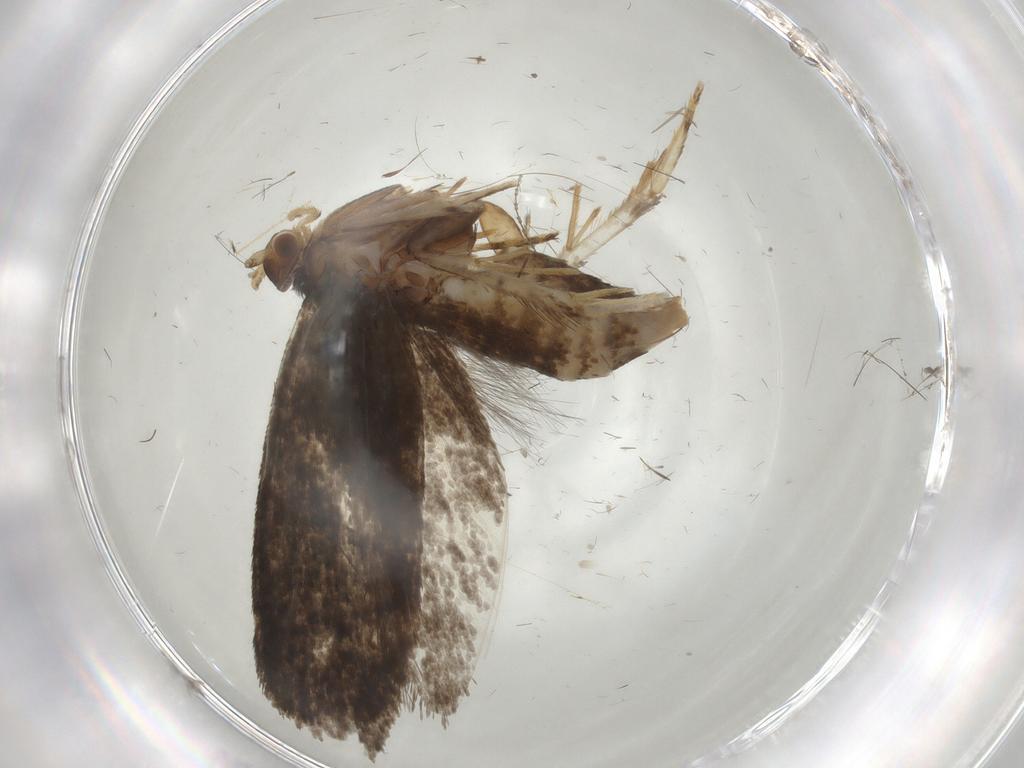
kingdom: Animalia
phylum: Arthropoda
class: Insecta
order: Lepidoptera
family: Tineidae
